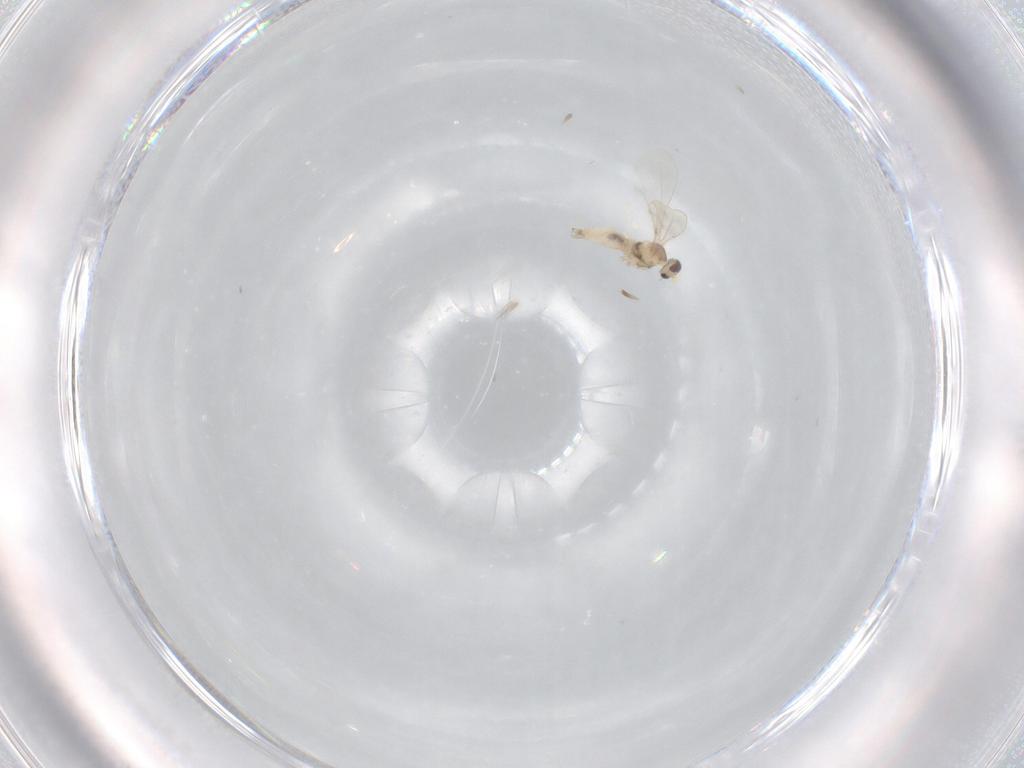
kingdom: Animalia
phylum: Arthropoda
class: Insecta
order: Diptera
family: Cecidomyiidae
